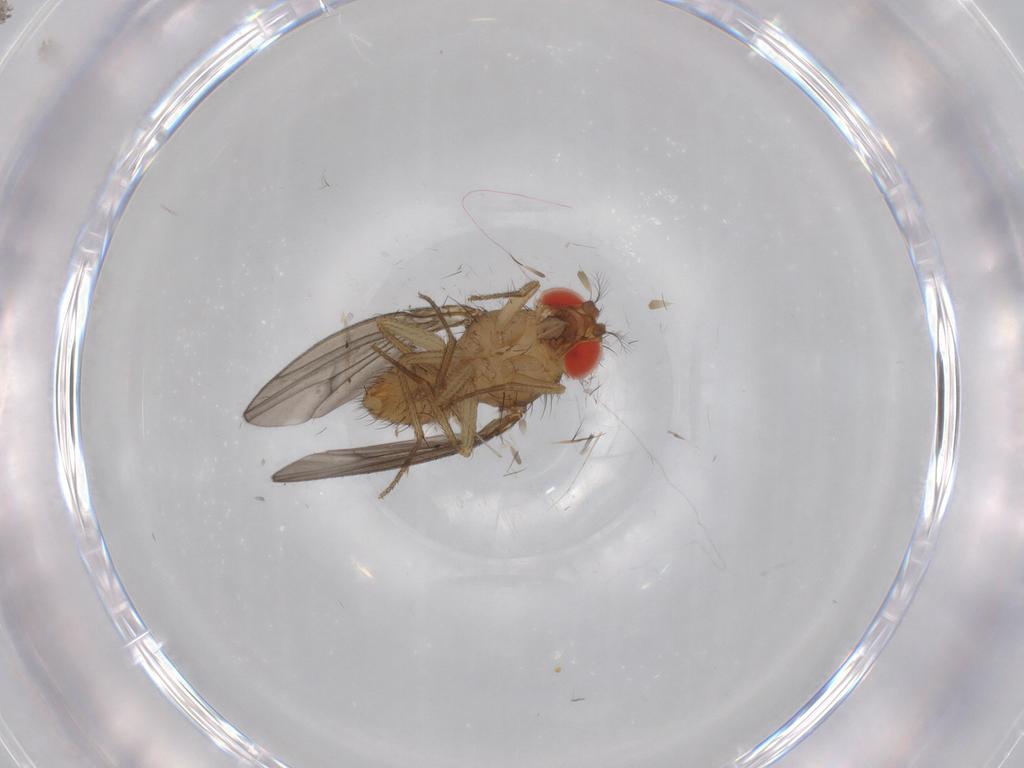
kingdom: Animalia
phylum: Arthropoda
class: Insecta
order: Diptera
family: Drosophilidae
